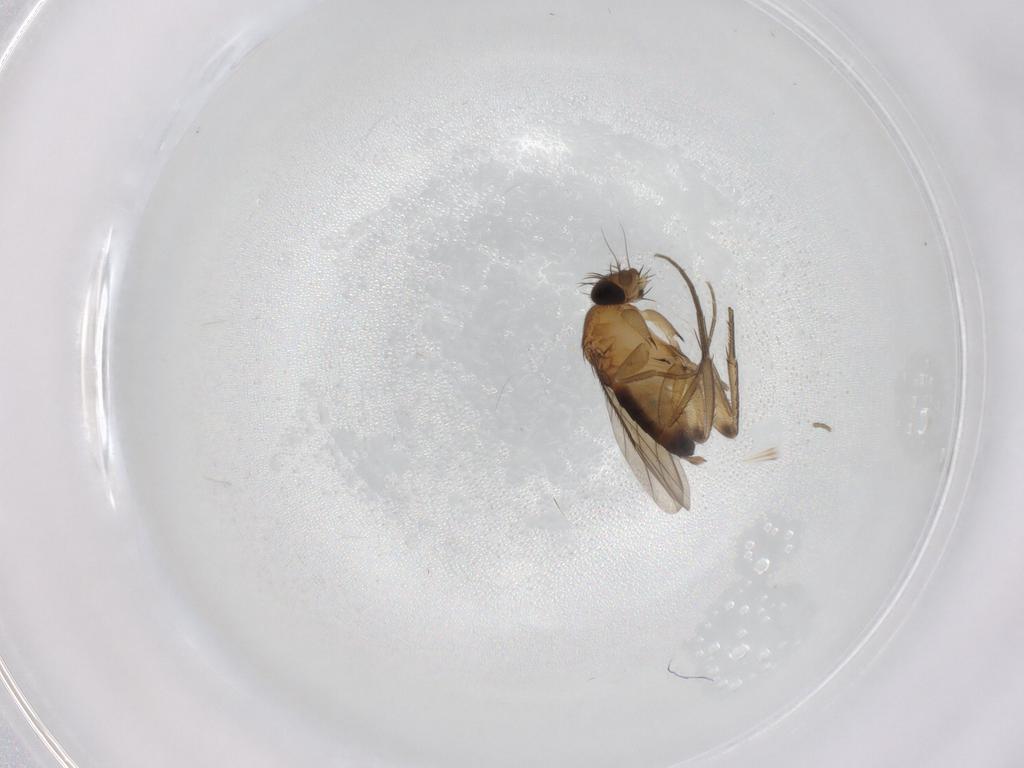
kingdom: Animalia
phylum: Arthropoda
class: Insecta
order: Diptera
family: Phoridae
